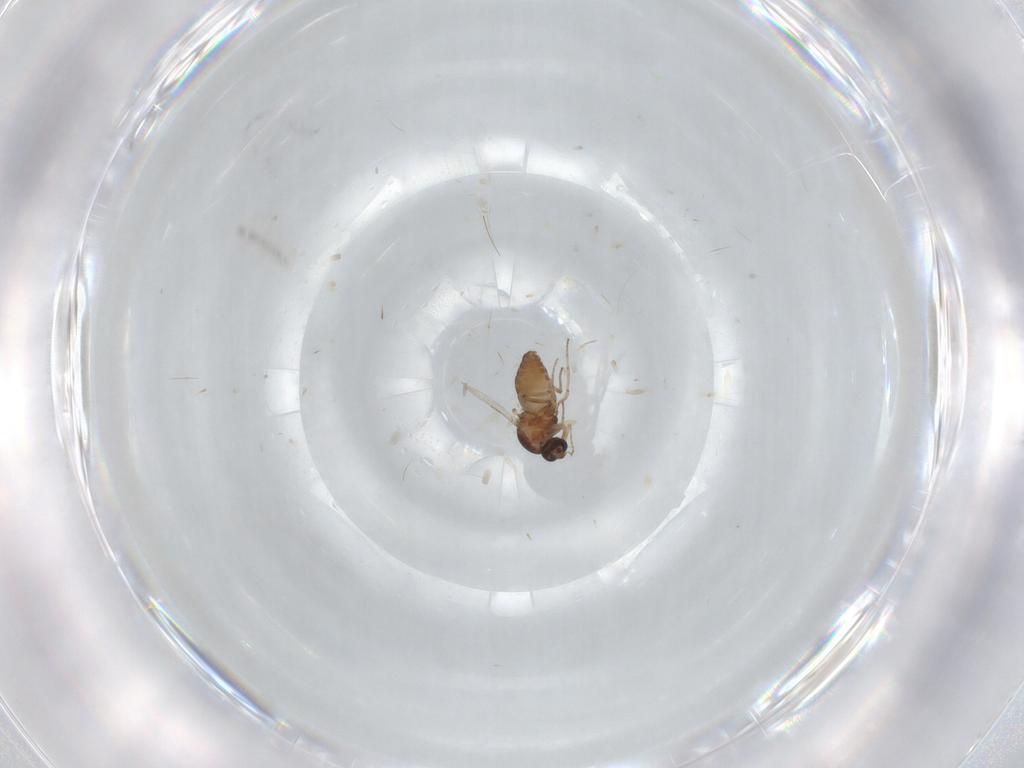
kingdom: Animalia
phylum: Arthropoda
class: Insecta
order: Diptera
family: Ceratopogonidae
